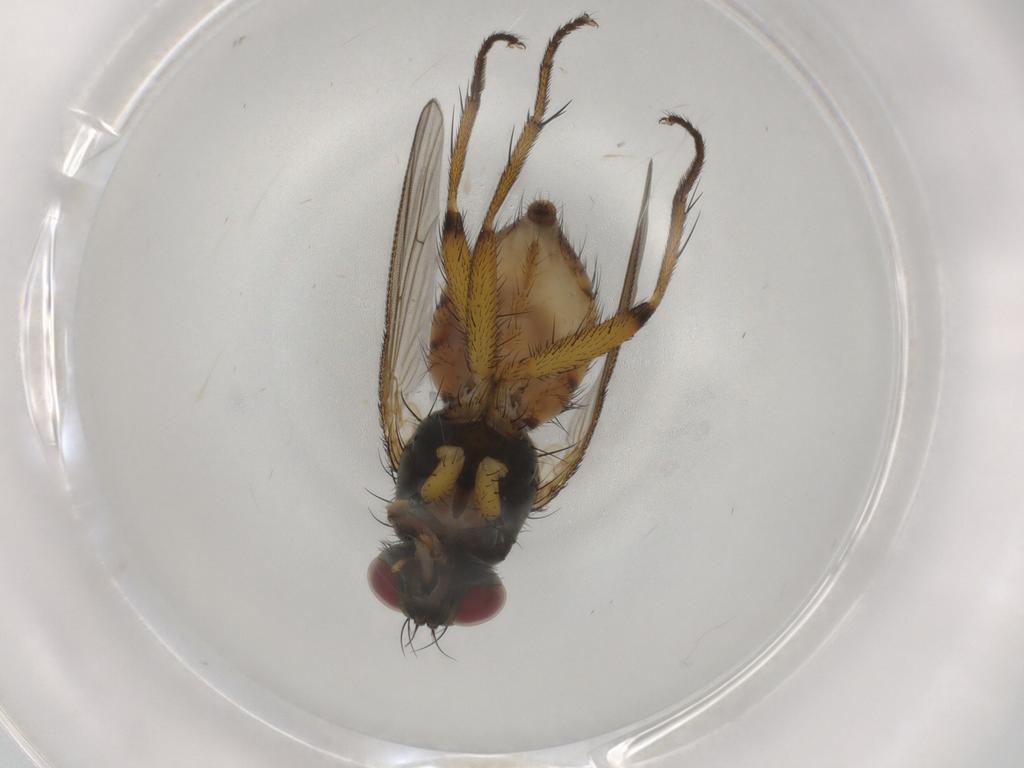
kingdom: Animalia
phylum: Arthropoda
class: Insecta
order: Diptera
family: Muscidae
